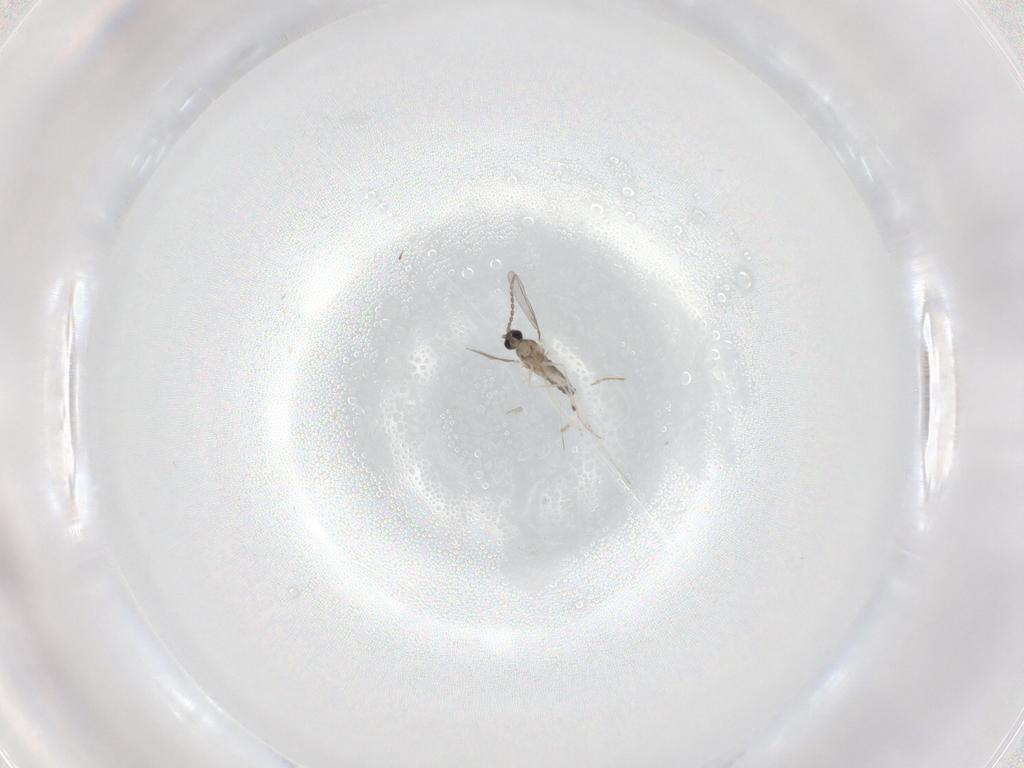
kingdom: Animalia
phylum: Arthropoda
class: Insecta
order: Diptera
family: Cecidomyiidae
